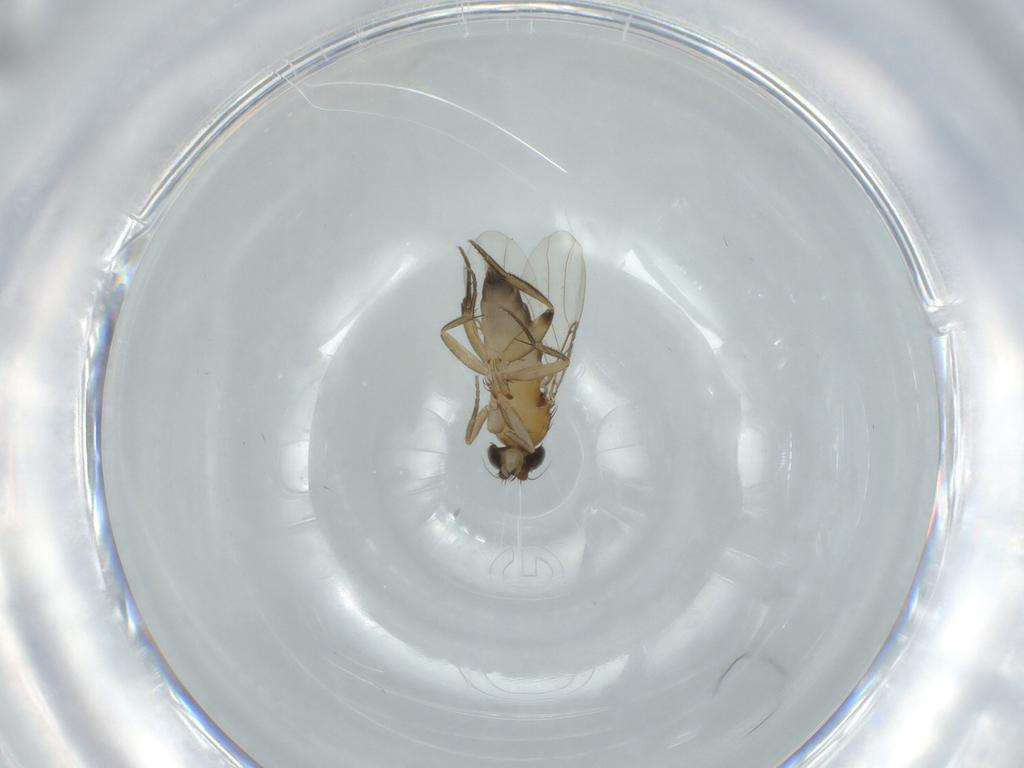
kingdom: Animalia
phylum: Arthropoda
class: Insecta
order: Diptera
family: Phoridae
